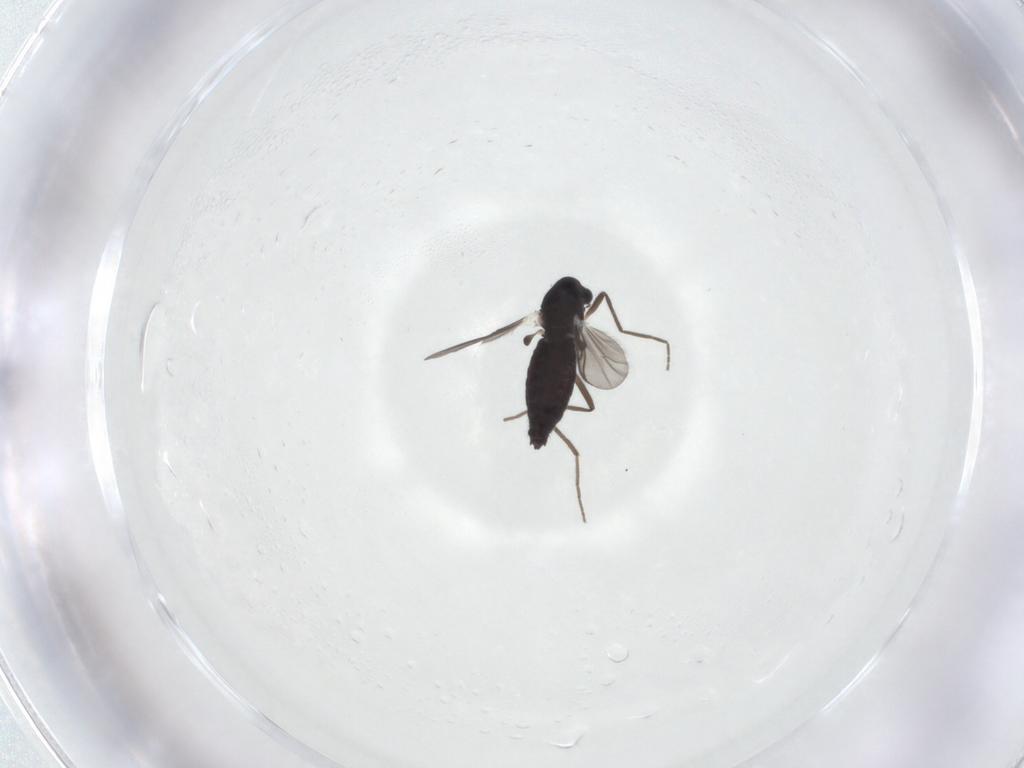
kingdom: Animalia
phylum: Arthropoda
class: Insecta
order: Diptera
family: Chironomidae
